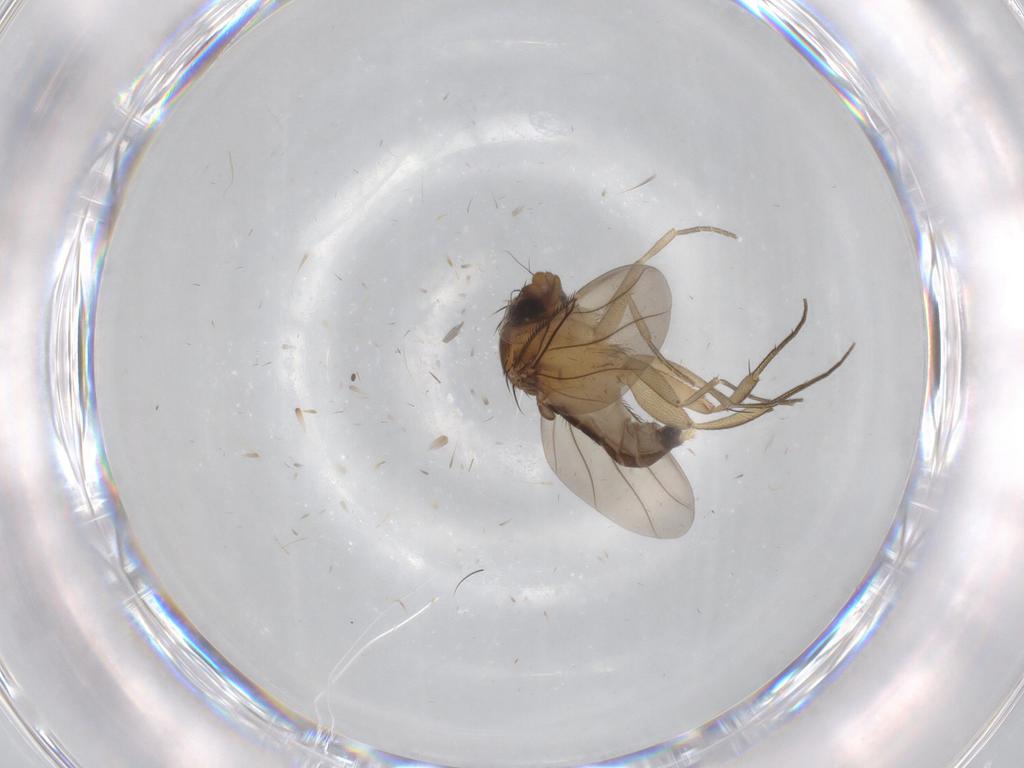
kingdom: Animalia
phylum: Arthropoda
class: Insecta
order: Diptera
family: Phoridae
